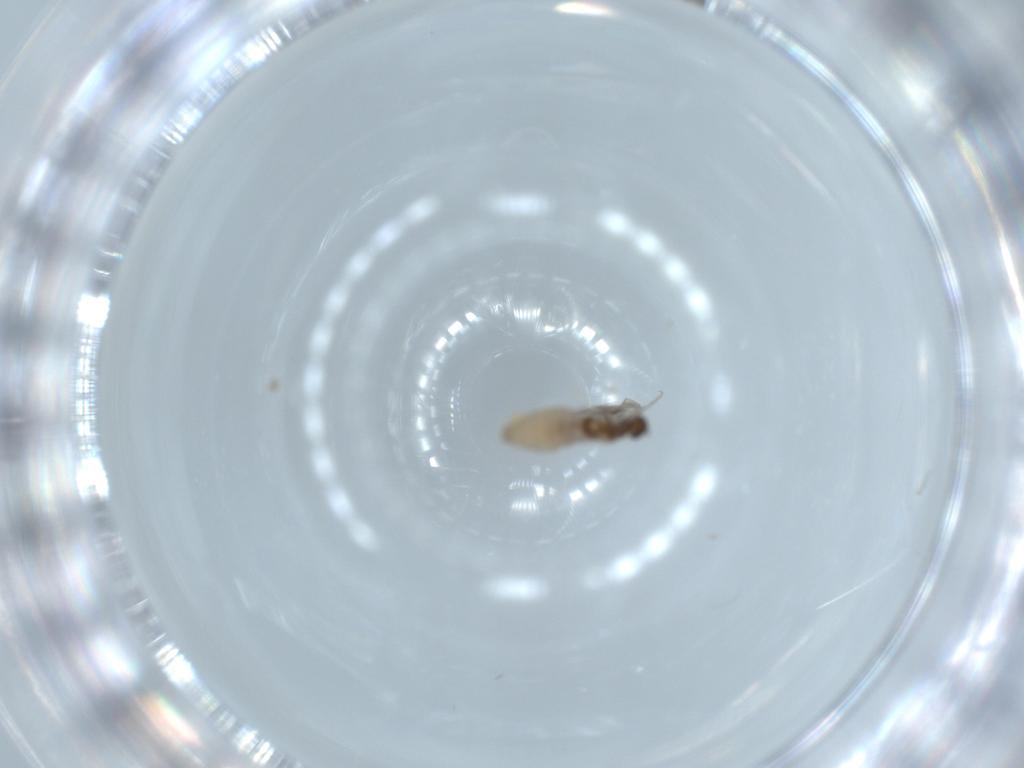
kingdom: Animalia
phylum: Arthropoda
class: Insecta
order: Diptera
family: Cecidomyiidae
